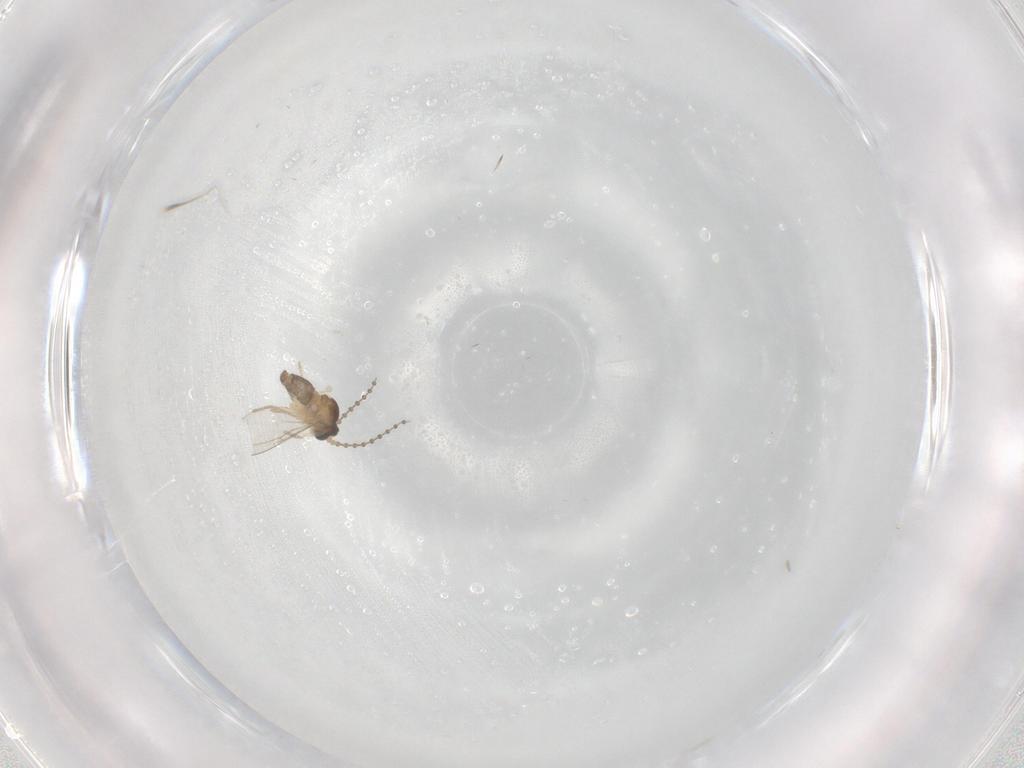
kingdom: Animalia
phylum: Arthropoda
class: Insecta
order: Diptera
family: Cecidomyiidae
